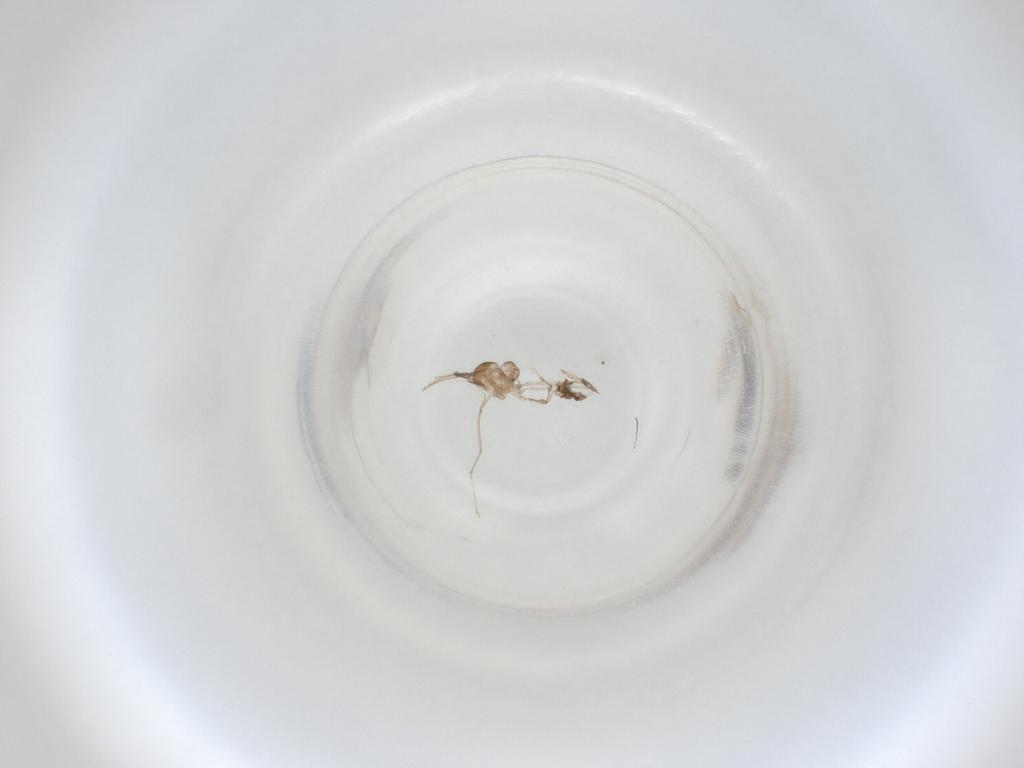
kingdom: Animalia
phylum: Arthropoda
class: Insecta
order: Diptera
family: Cecidomyiidae
